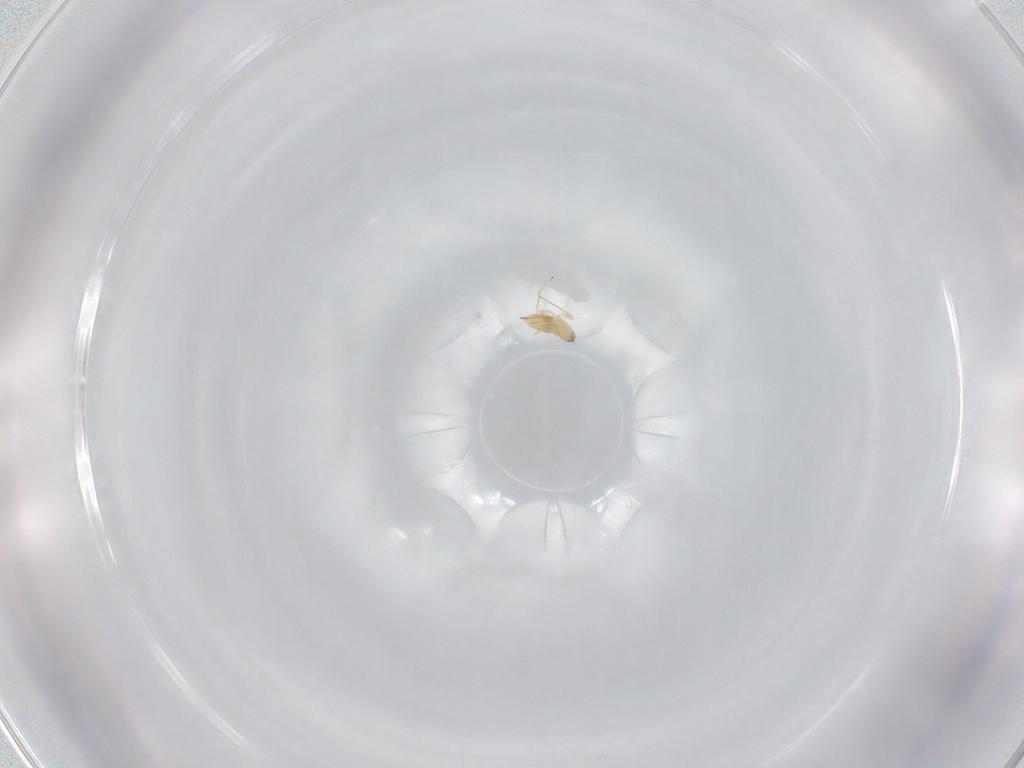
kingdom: Animalia
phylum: Arthropoda
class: Insecta
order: Hymenoptera
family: Mymaridae
